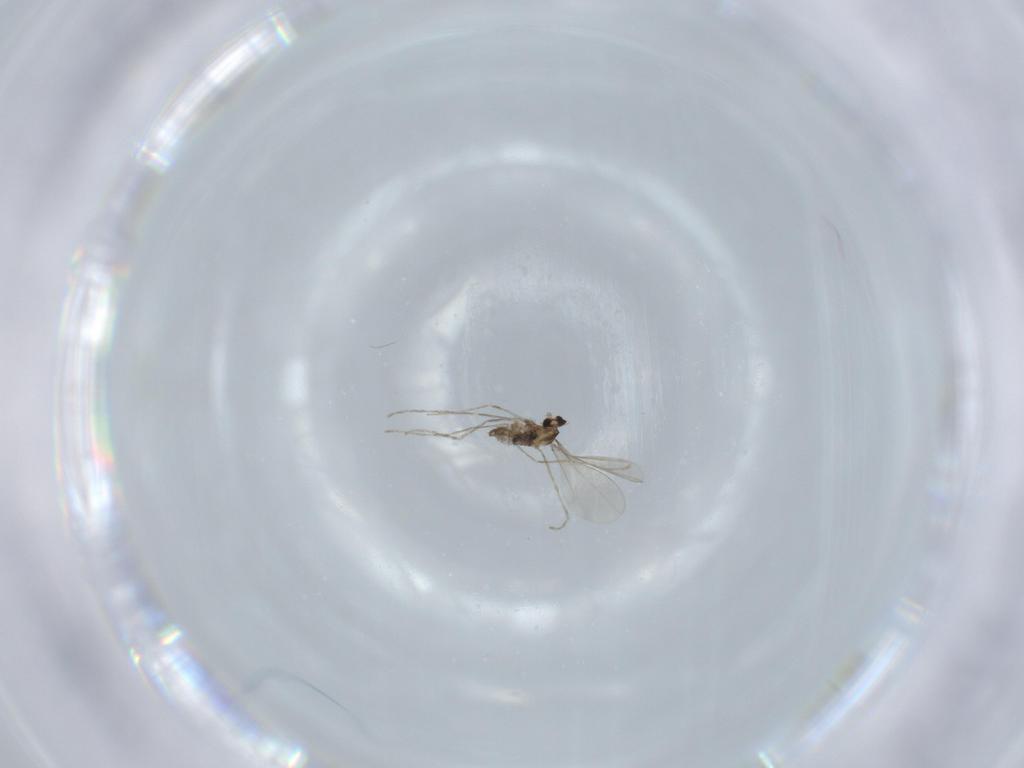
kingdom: Animalia
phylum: Arthropoda
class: Insecta
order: Diptera
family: Cecidomyiidae
